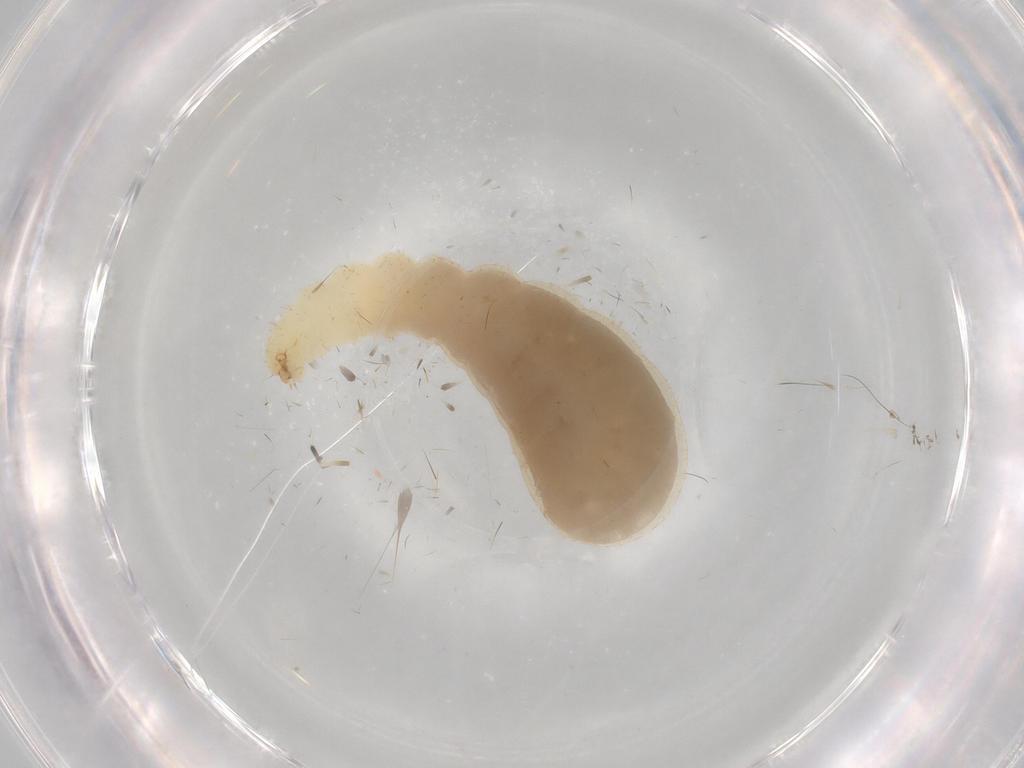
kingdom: Animalia
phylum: Arthropoda
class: Insecta
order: Hymenoptera
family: Formicidae
